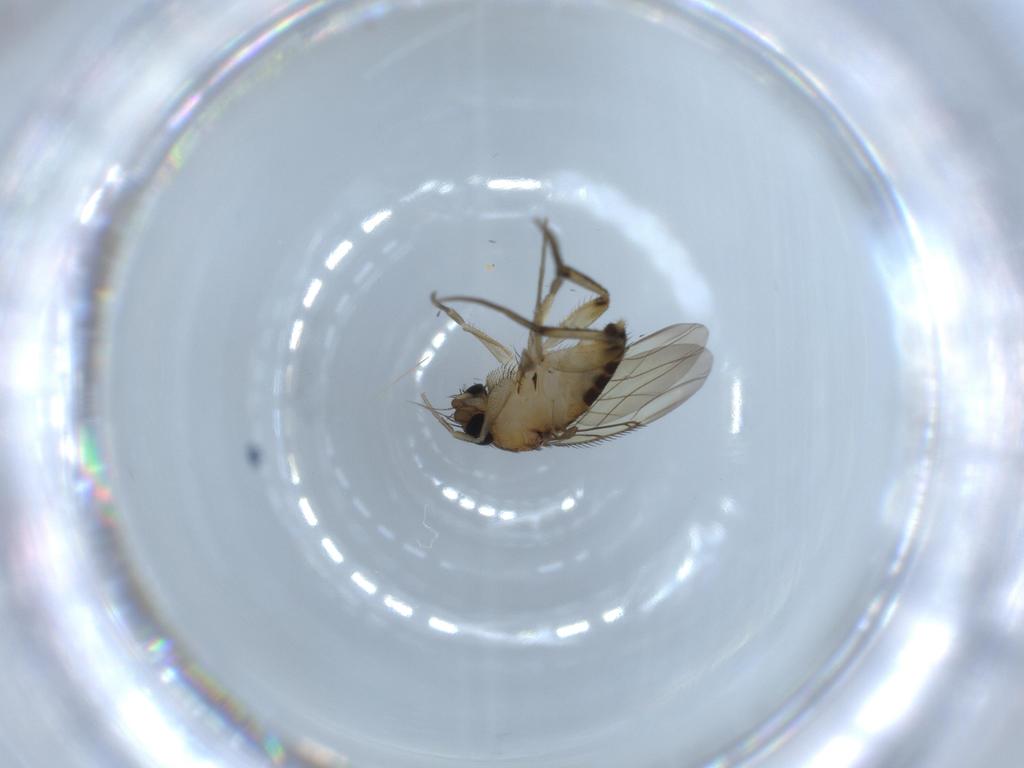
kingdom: Animalia
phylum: Arthropoda
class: Insecta
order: Diptera
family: Phoridae
